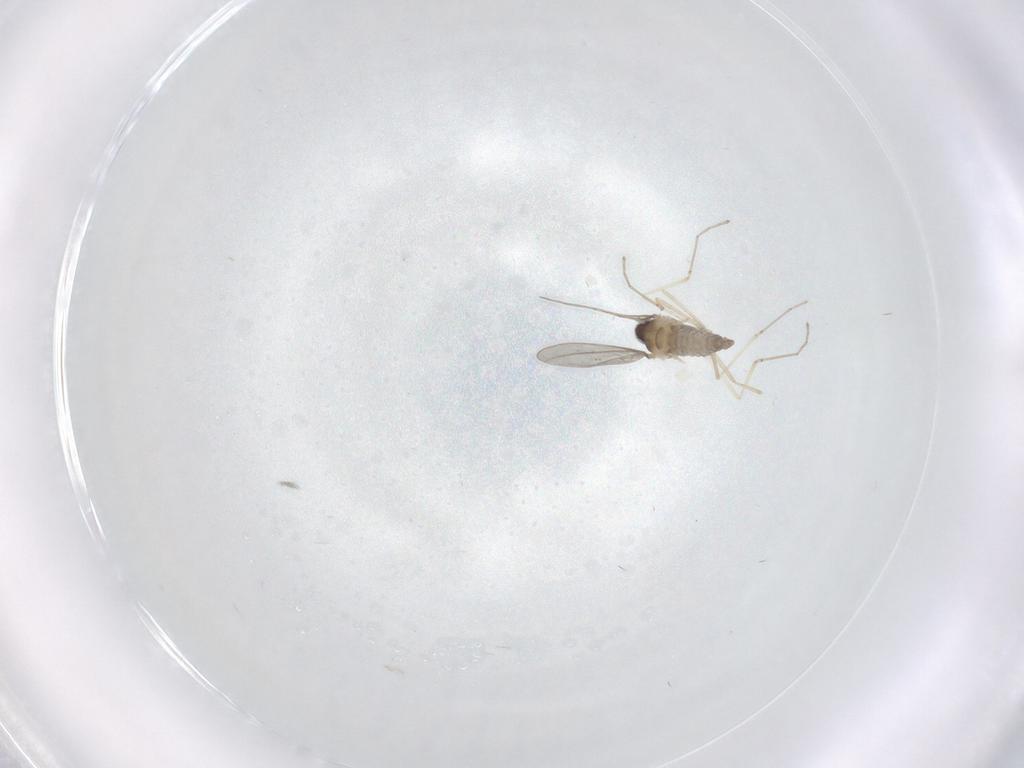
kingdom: Animalia
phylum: Arthropoda
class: Insecta
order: Diptera
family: Cecidomyiidae
